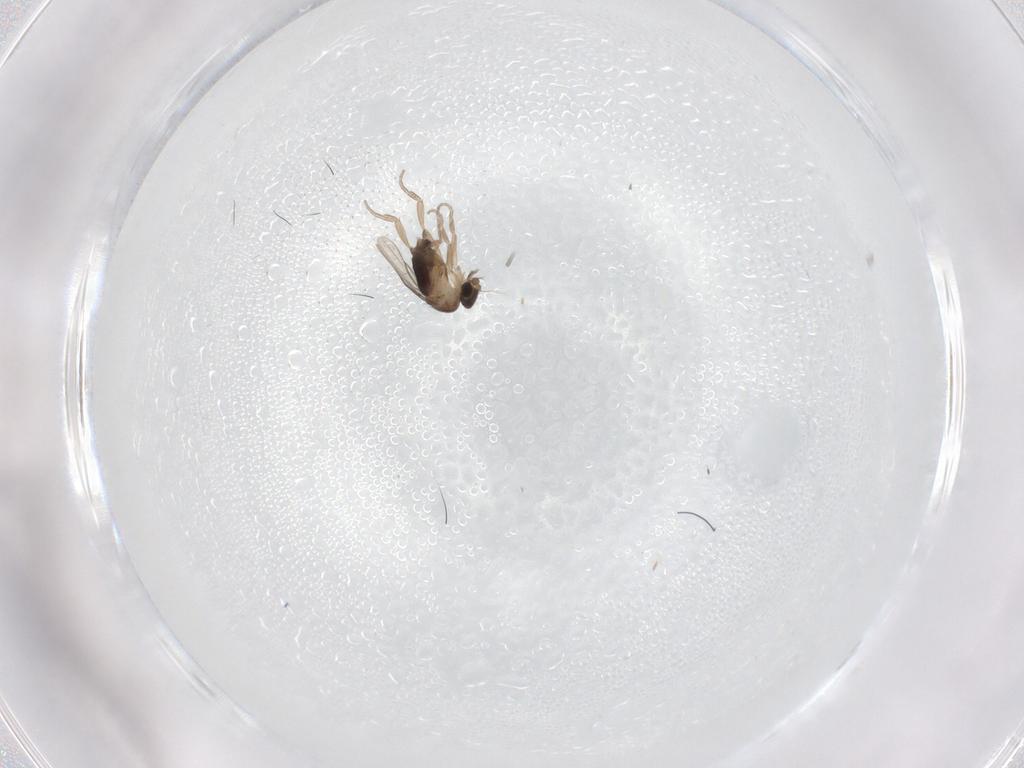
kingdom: Animalia
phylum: Arthropoda
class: Insecta
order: Diptera
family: Phoridae
